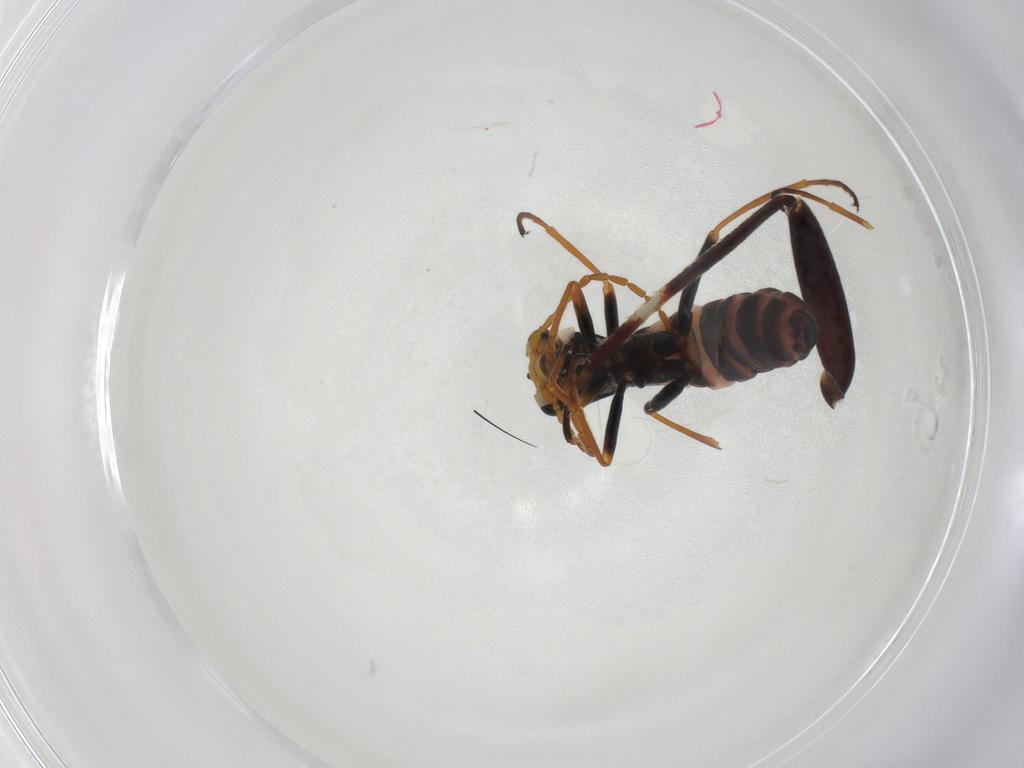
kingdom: Animalia
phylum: Arthropoda
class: Insecta
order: Coleoptera
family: Melyridae
